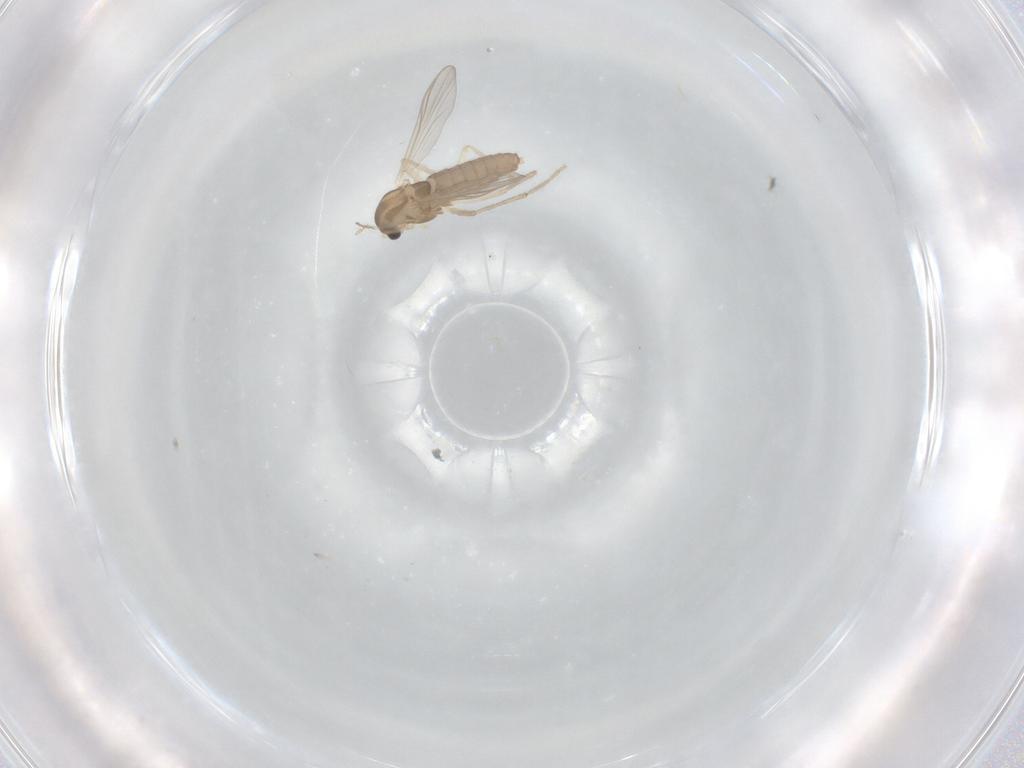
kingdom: Animalia
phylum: Arthropoda
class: Insecta
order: Diptera
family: Chironomidae
